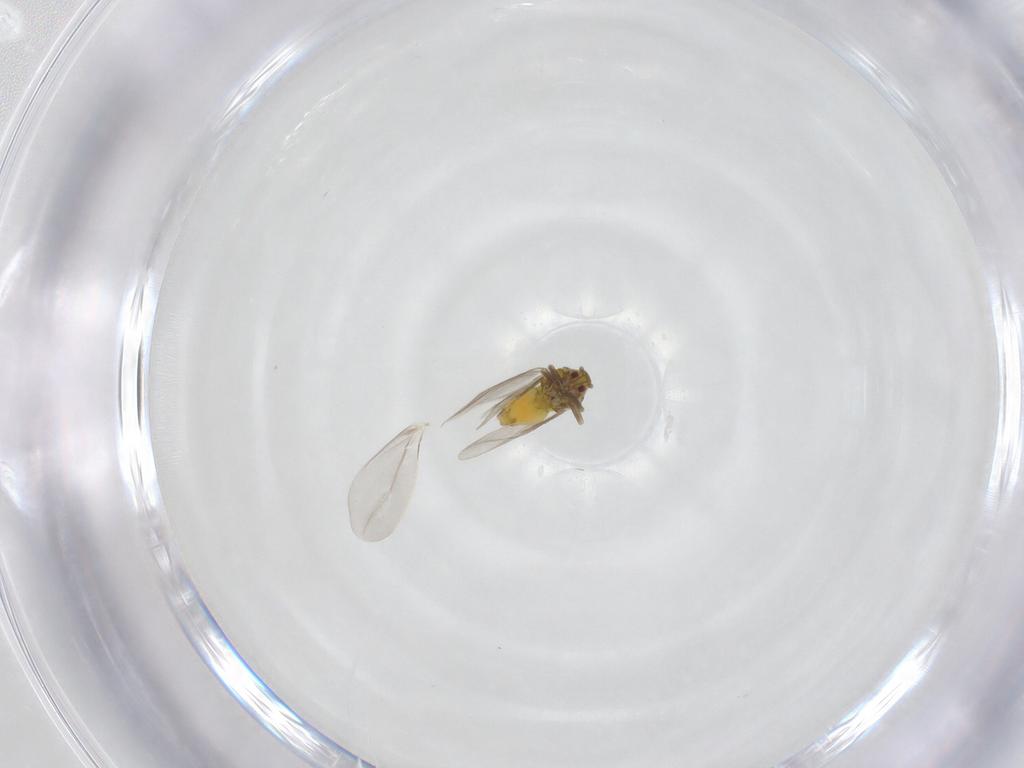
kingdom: Animalia
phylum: Arthropoda
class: Insecta
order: Hemiptera
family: Aleyrodidae
